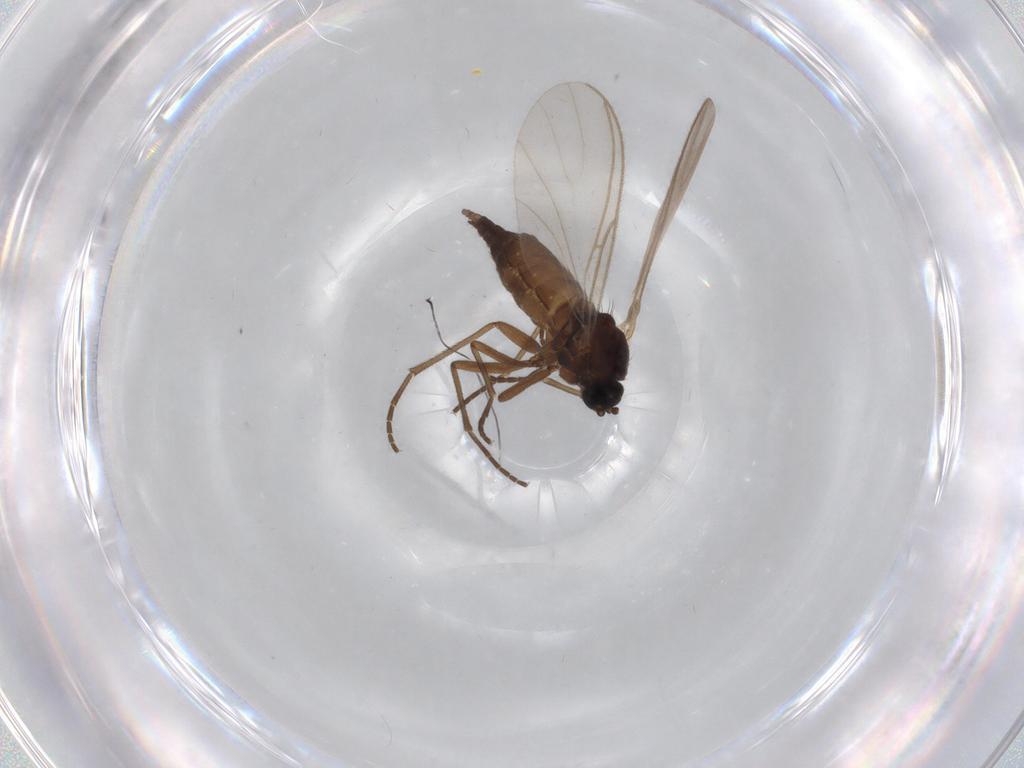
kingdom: Animalia
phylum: Arthropoda
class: Insecta
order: Diptera
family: Sciaridae
